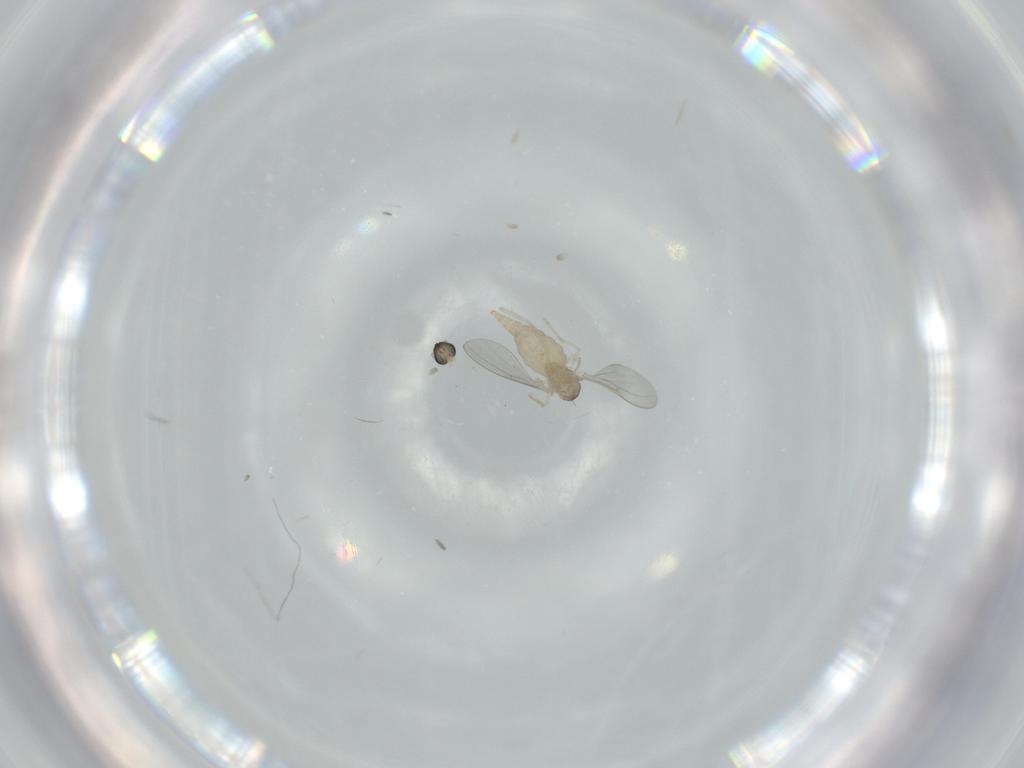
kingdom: Animalia
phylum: Arthropoda
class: Insecta
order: Diptera
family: Cecidomyiidae
